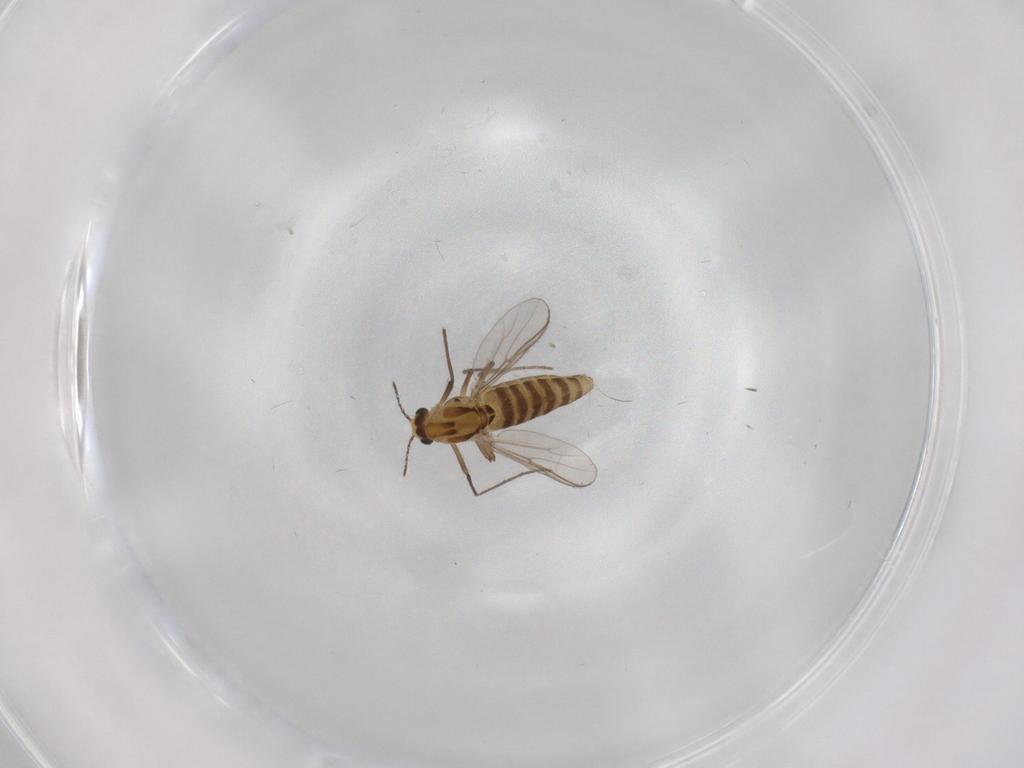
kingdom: Animalia
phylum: Arthropoda
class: Insecta
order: Diptera
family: Chironomidae
